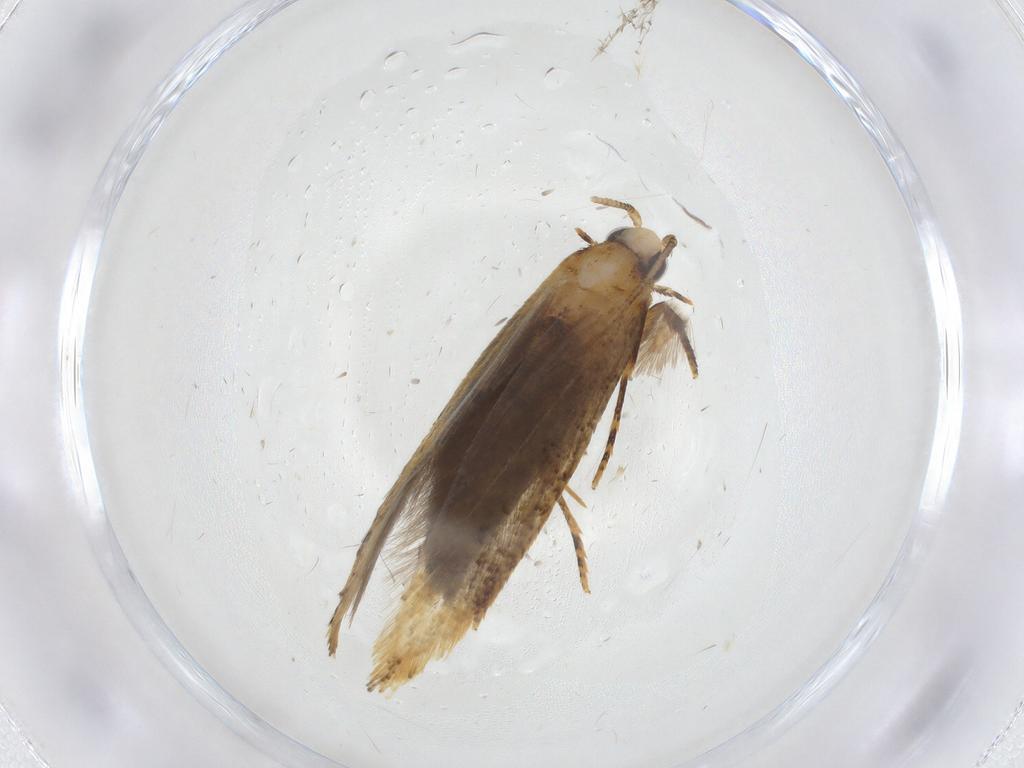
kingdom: Animalia
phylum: Arthropoda
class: Insecta
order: Lepidoptera
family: Tineidae
